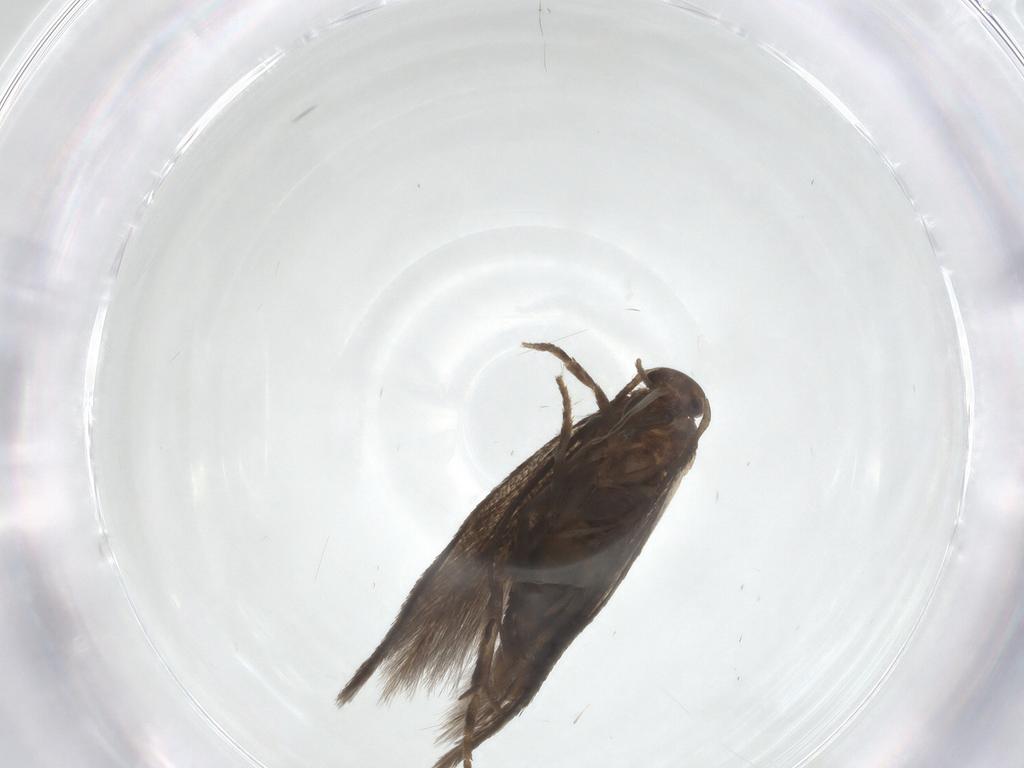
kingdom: Animalia
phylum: Arthropoda
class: Insecta
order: Lepidoptera
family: Elachistidae
